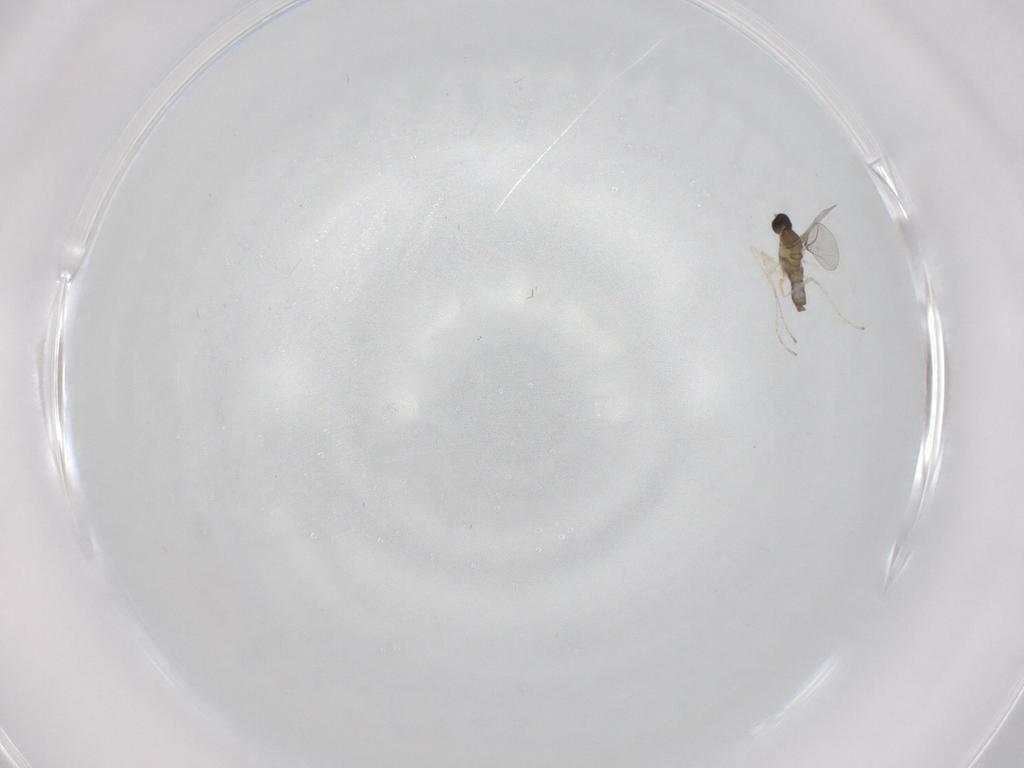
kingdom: Animalia
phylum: Arthropoda
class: Insecta
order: Diptera
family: Cecidomyiidae
